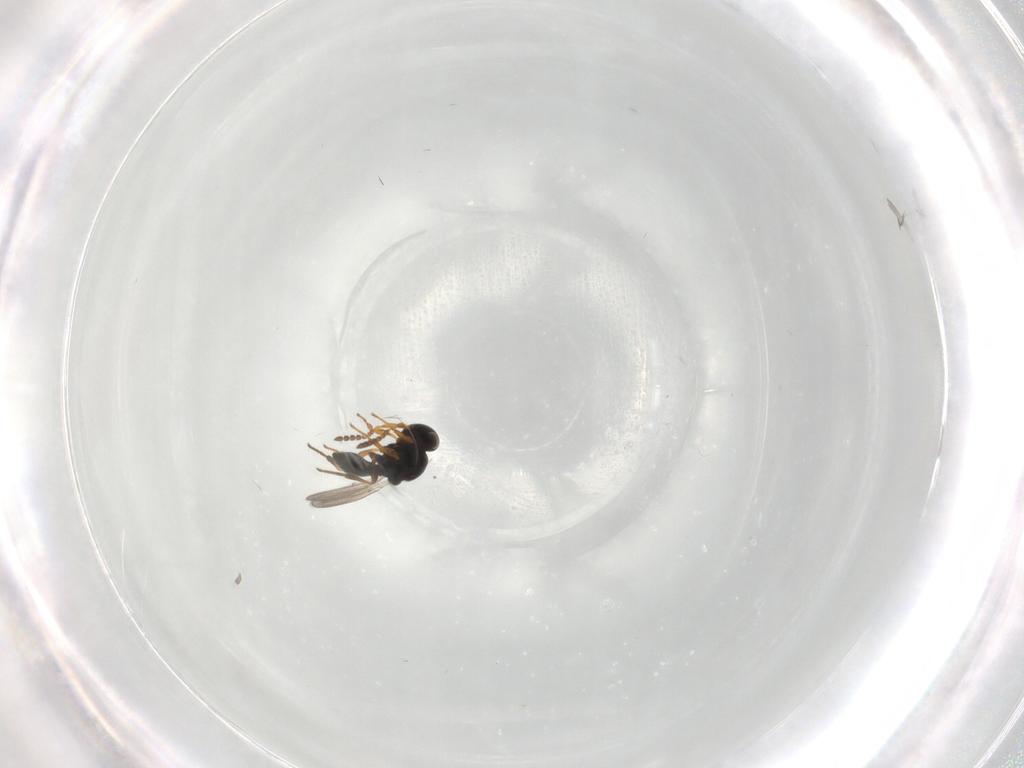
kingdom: Animalia
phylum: Arthropoda
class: Insecta
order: Hymenoptera
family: Platygastridae
